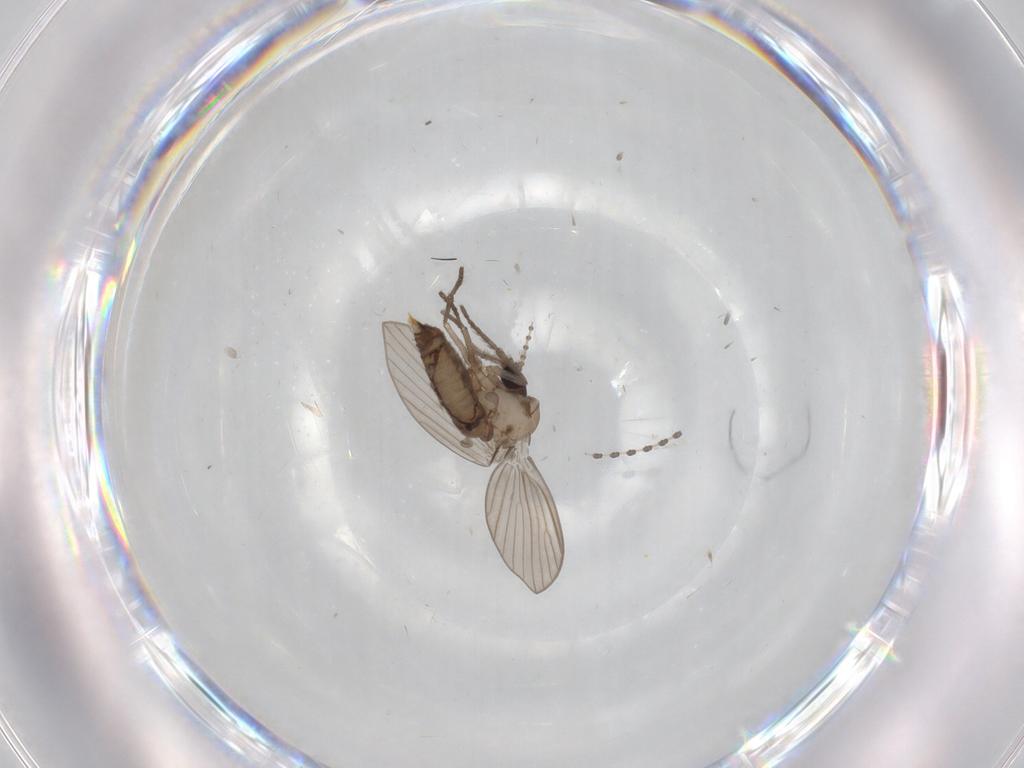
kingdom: Animalia
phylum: Arthropoda
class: Insecta
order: Diptera
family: Psychodidae
